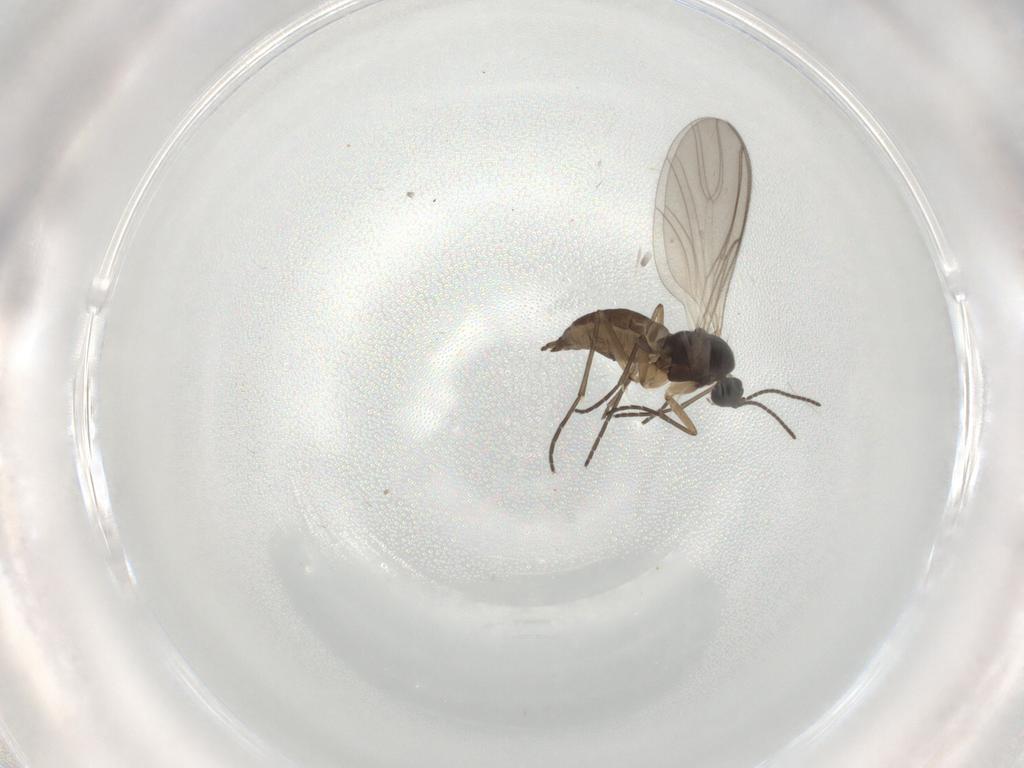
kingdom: Animalia
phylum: Arthropoda
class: Insecta
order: Diptera
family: Sciaridae
